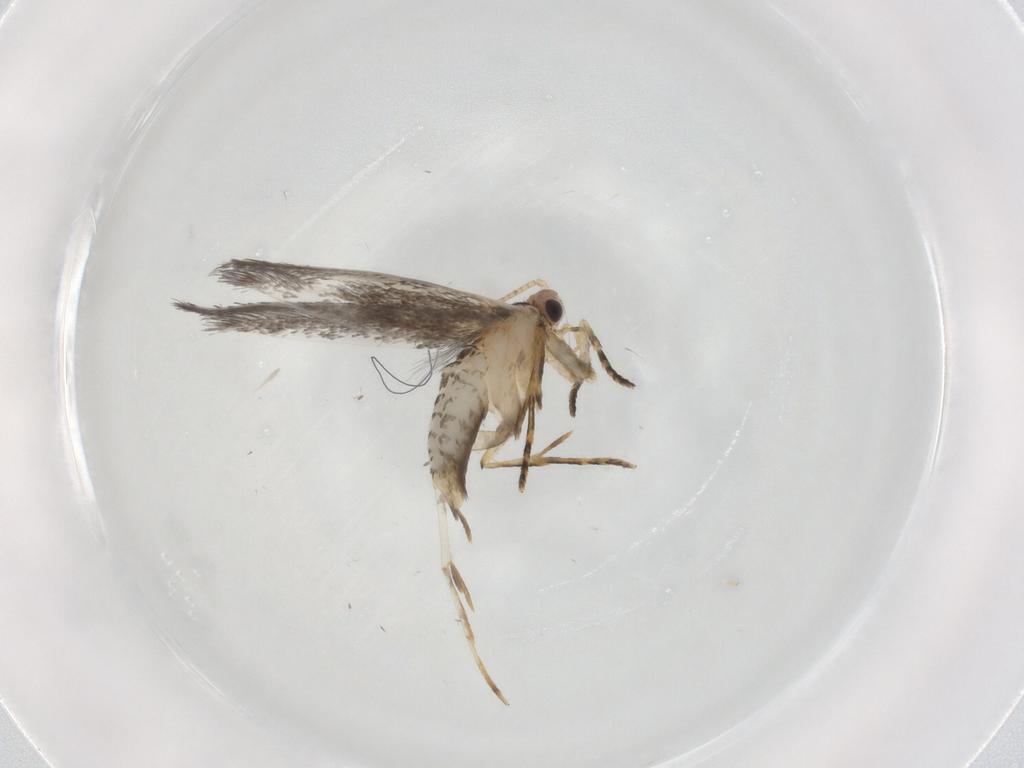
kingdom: Animalia
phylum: Arthropoda
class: Insecta
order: Lepidoptera
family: Tineidae
